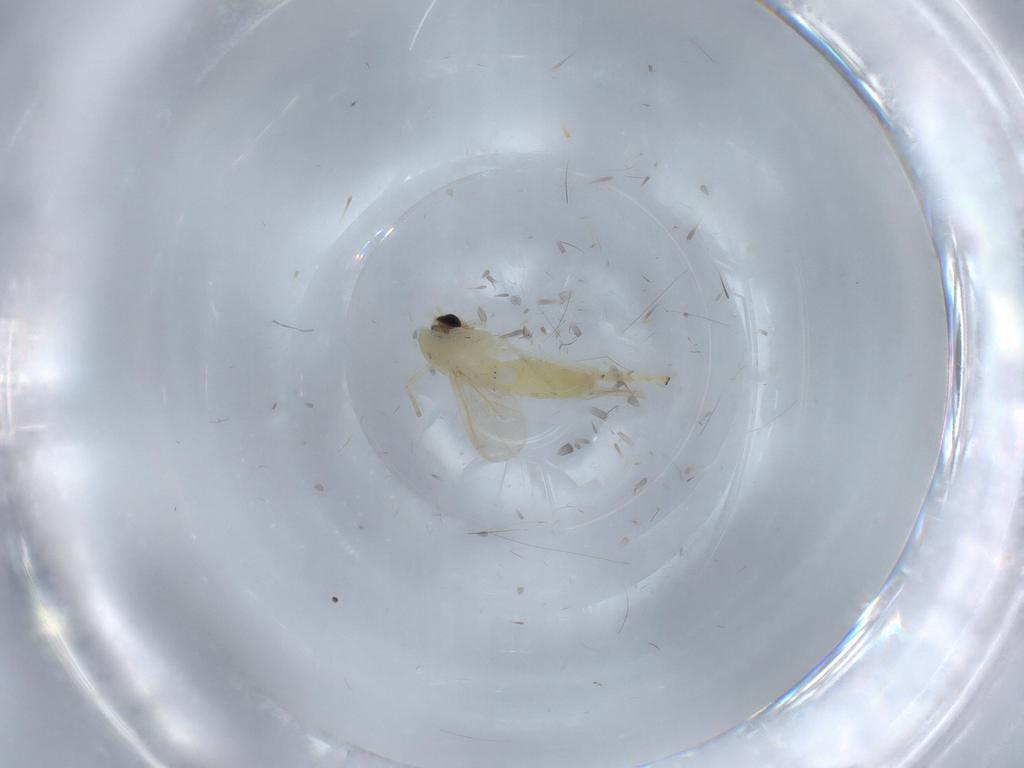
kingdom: Animalia
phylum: Arthropoda
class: Insecta
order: Diptera
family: Chironomidae
